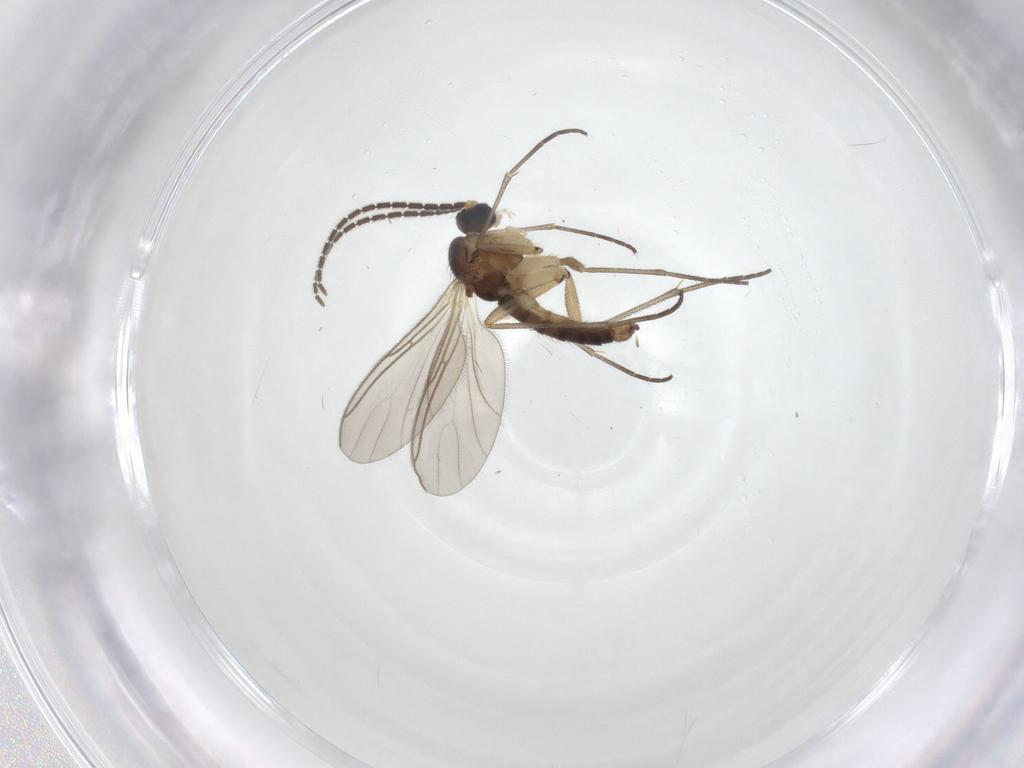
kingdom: Animalia
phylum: Arthropoda
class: Insecta
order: Diptera
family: Sciaridae
